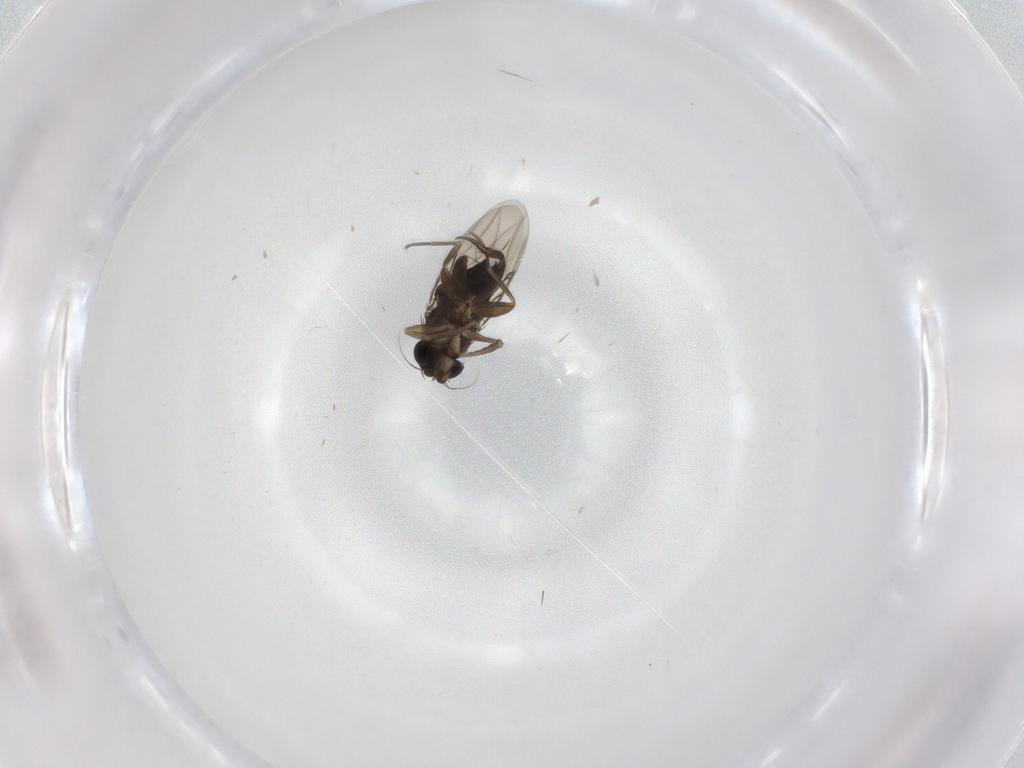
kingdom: Animalia
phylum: Arthropoda
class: Insecta
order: Diptera
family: Phoridae
